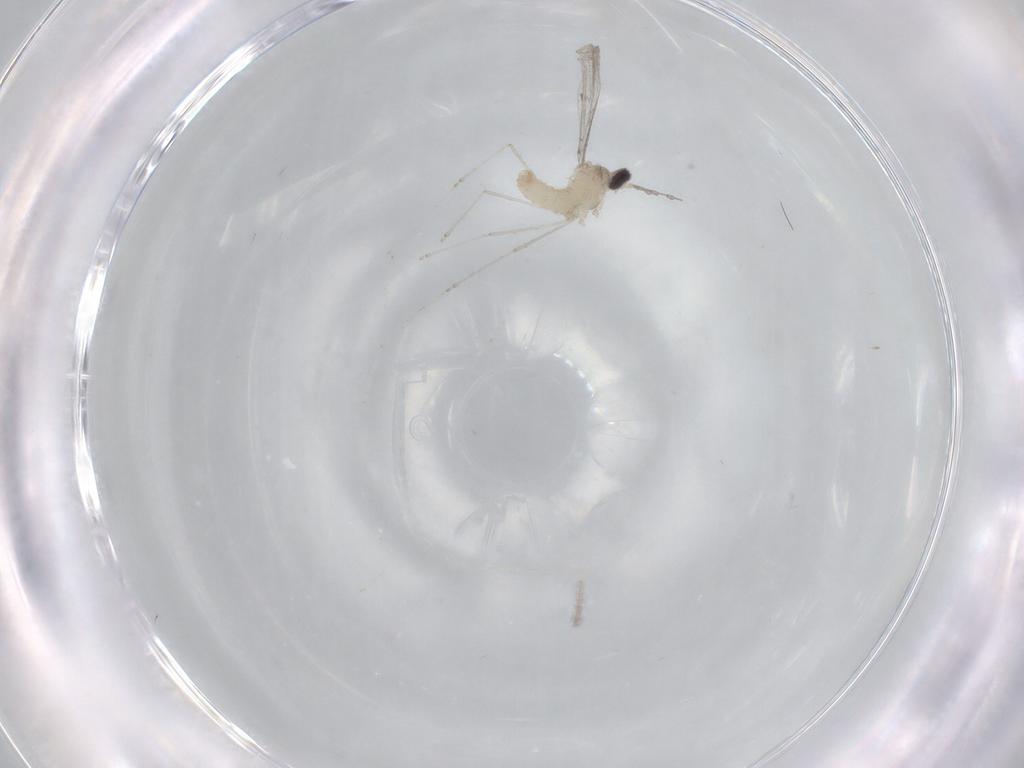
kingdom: Animalia
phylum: Arthropoda
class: Insecta
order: Diptera
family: Cecidomyiidae
